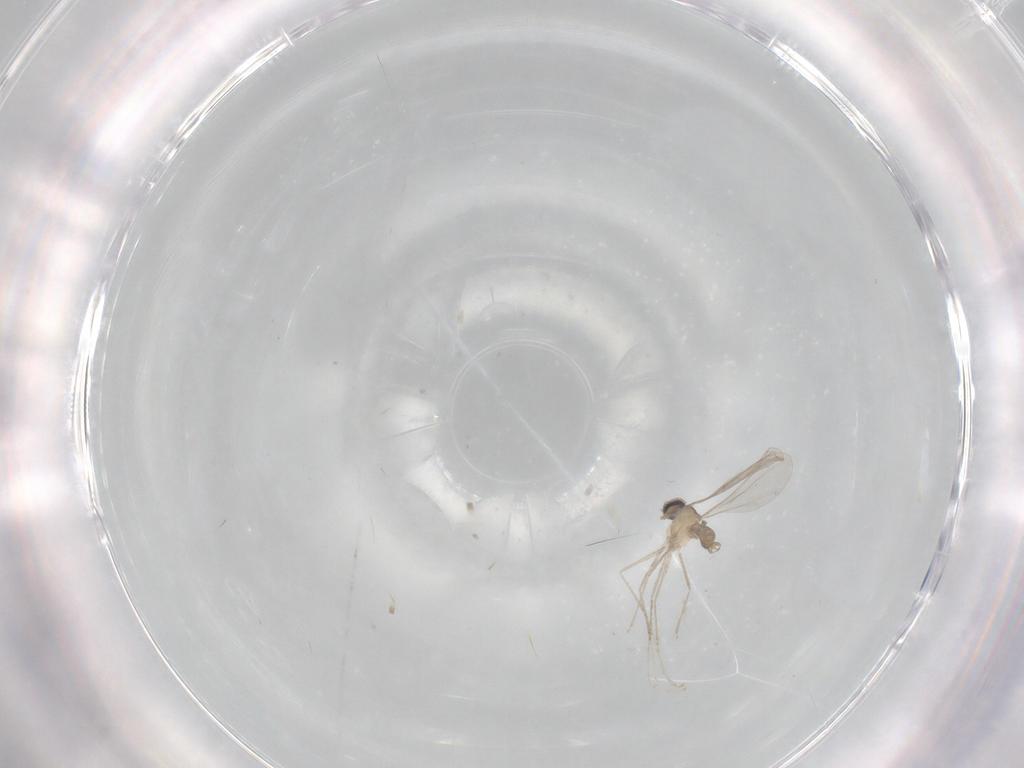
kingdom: Animalia
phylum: Arthropoda
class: Insecta
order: Diptera
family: Cecidomyiidae
